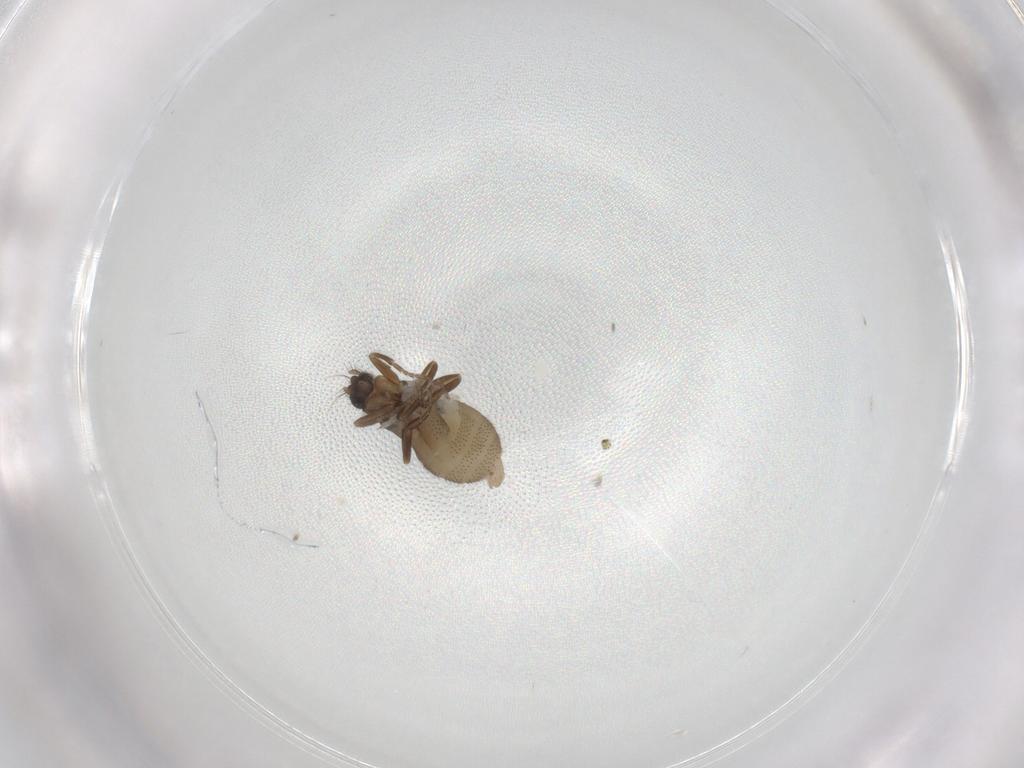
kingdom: Animalia
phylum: Arthropoda
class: Insecta
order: Diptera
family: Phoridae
